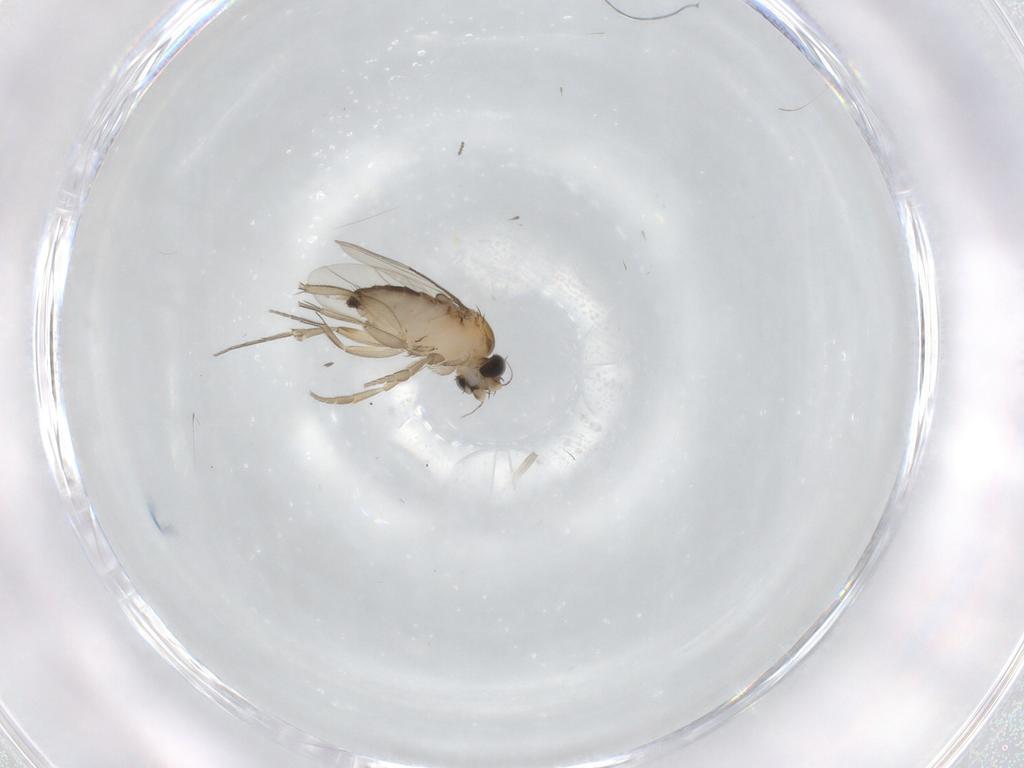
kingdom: Animalia
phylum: Arthropoda
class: Insecta
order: Diptera
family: Phoridae
